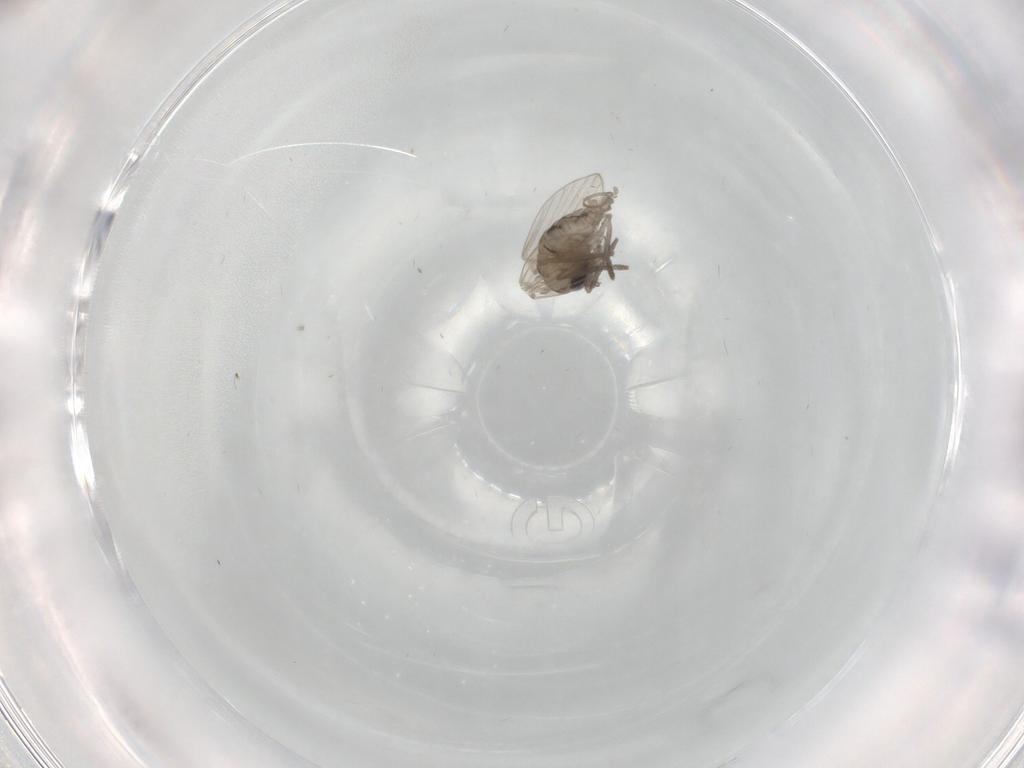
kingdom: Animalia
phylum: Arthropoda
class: Insecta
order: Diptera
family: Psychodidae
